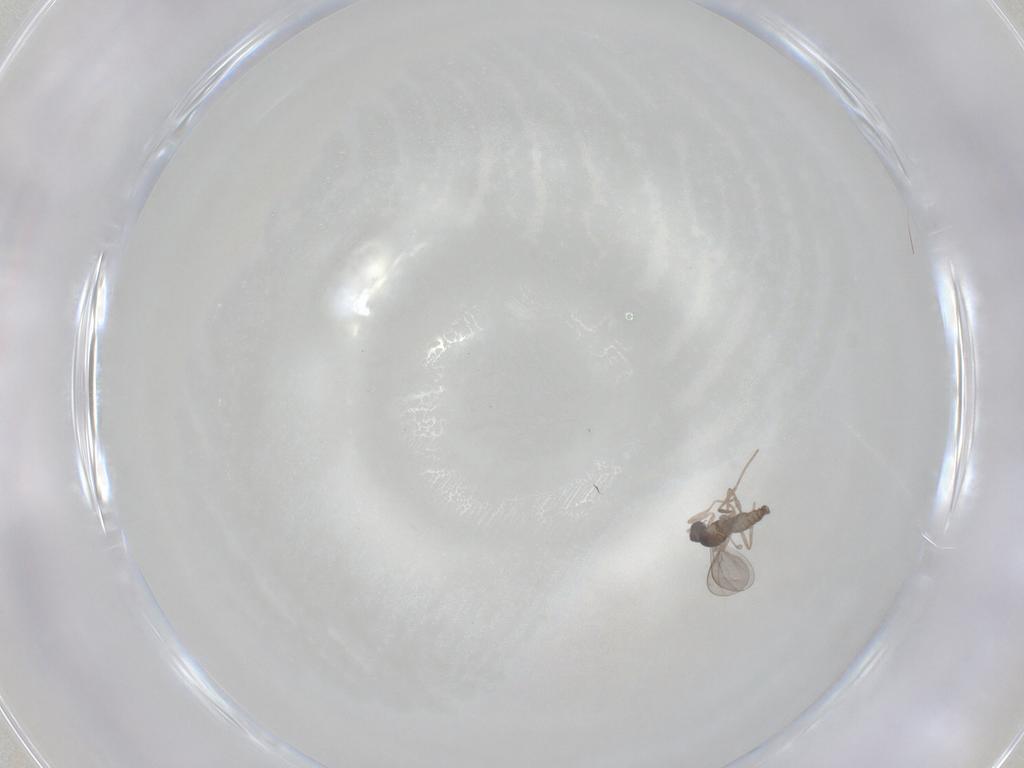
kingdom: Animalia
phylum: Arthropoda
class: Insecta
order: Diptera
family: Cecidomyiidae
